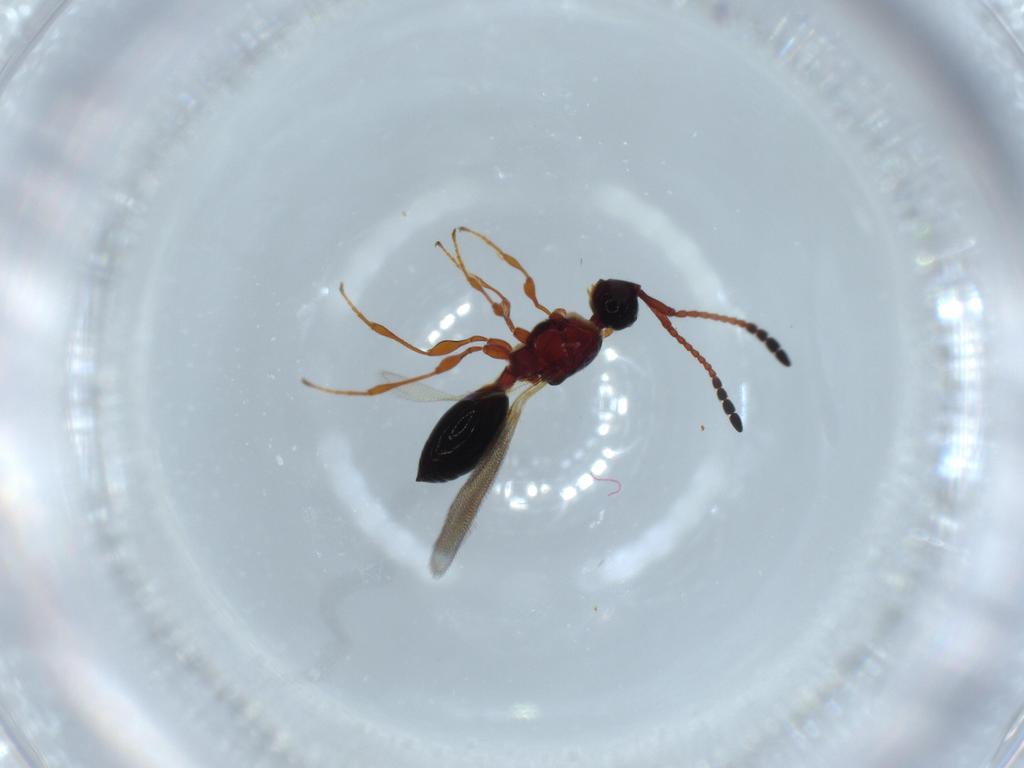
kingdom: Animalia
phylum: Arthropoda
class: Insecta
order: Hymenoptera
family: Diapriidae
